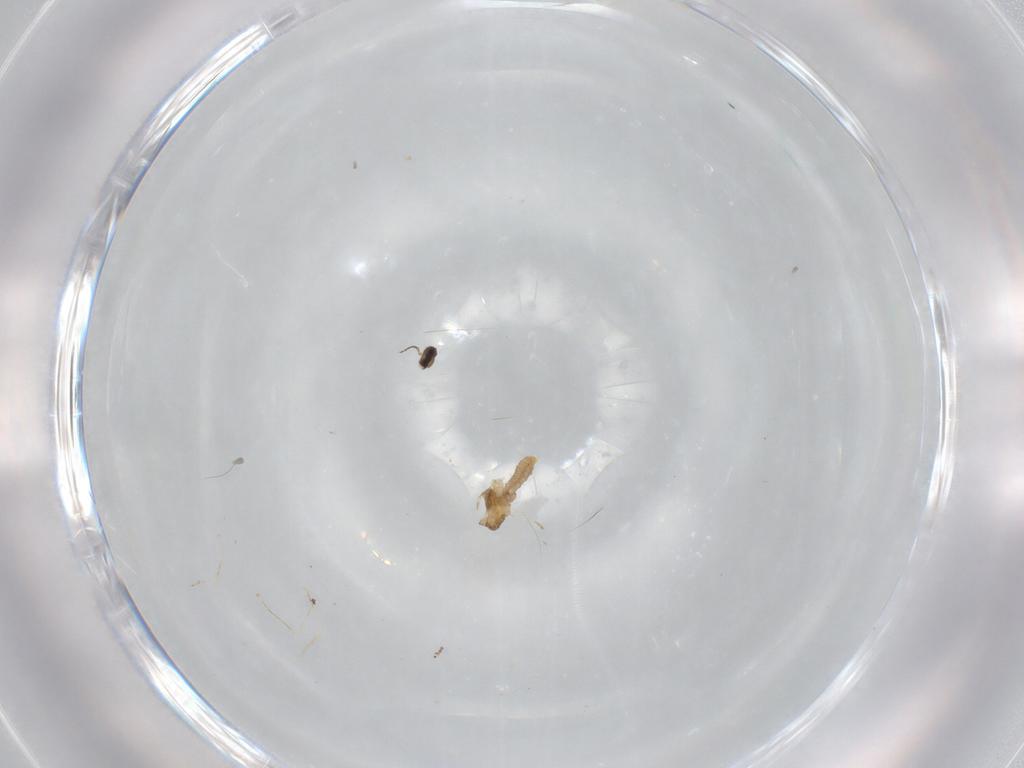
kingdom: Animalia
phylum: Arthropoda
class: Insecta
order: Diptera
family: Cecidomyiidae
